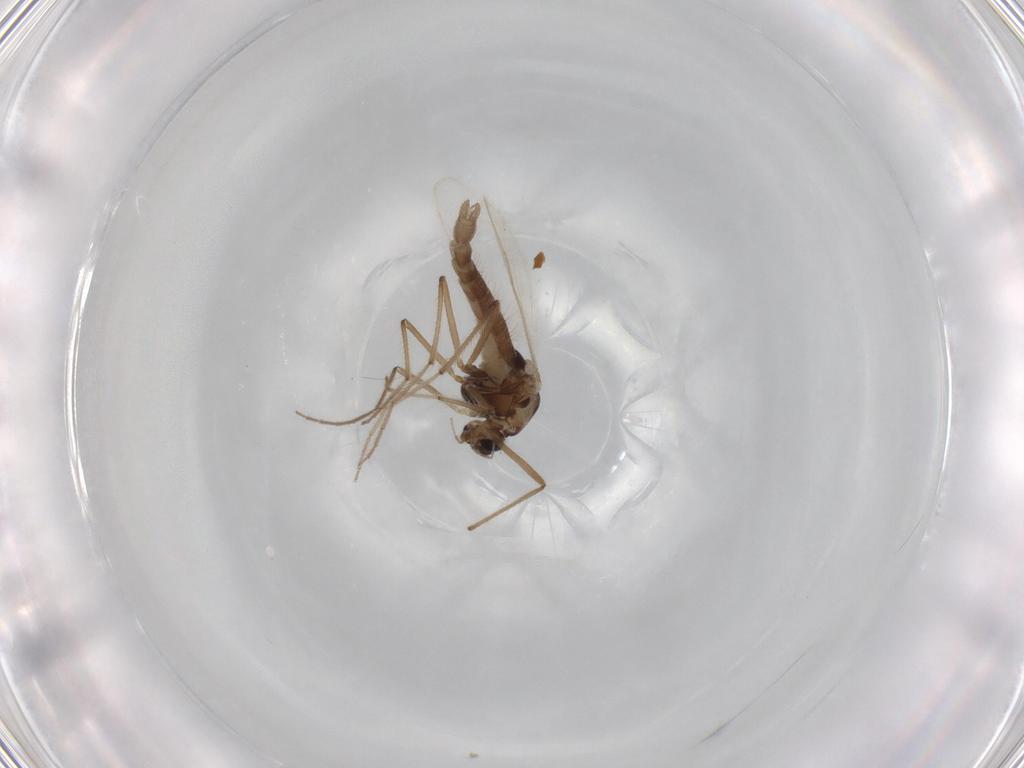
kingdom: Animalia
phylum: Arthropoda
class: Insecta
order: Diptera
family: Chironomidae
